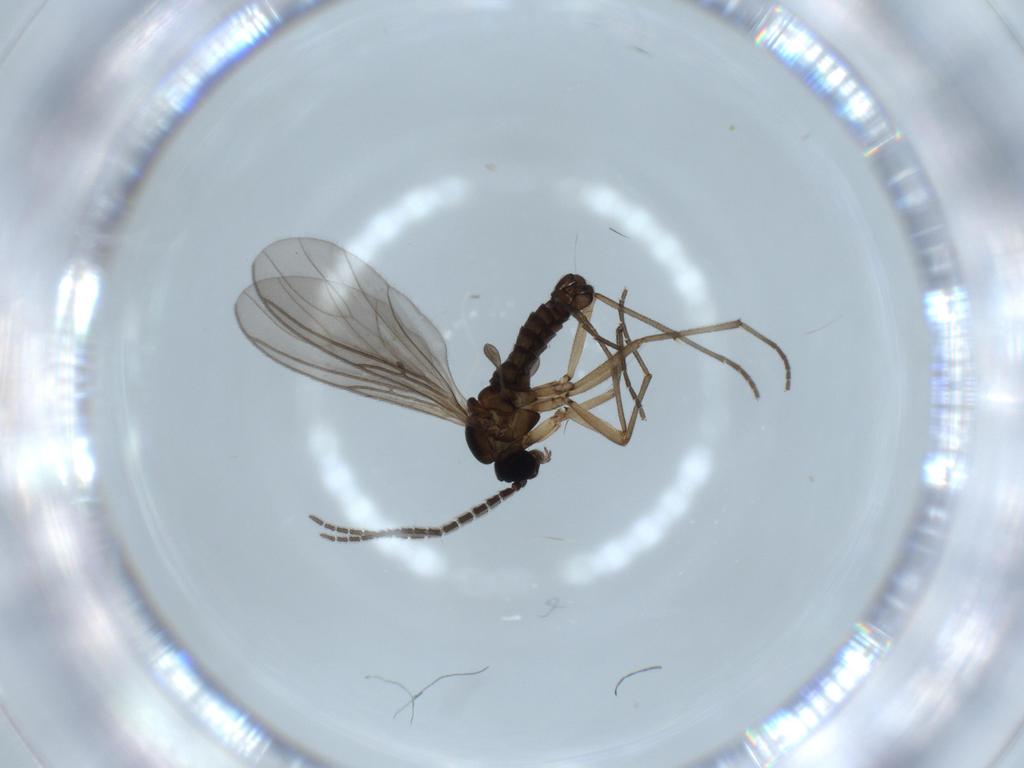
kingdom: Animalia
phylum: Arthropoda
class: Insecta
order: Diptera
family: Sciaridae
